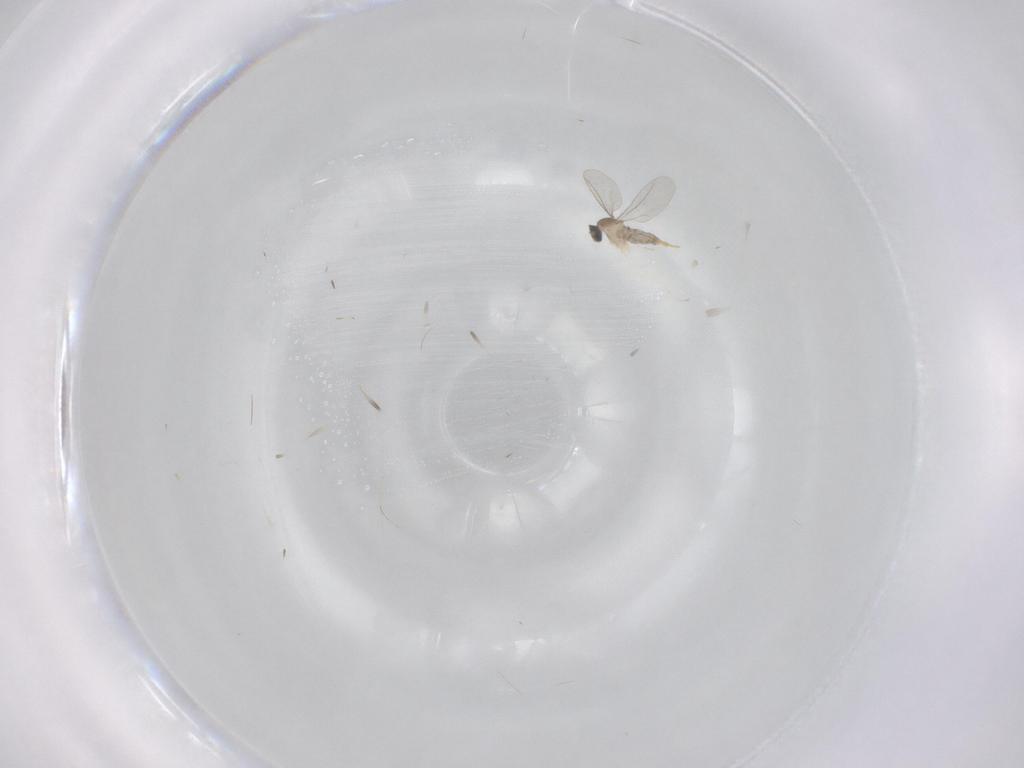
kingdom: Animalia
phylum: Arthropoda
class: Insecta
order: Diptera
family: Cecidomyiidae
